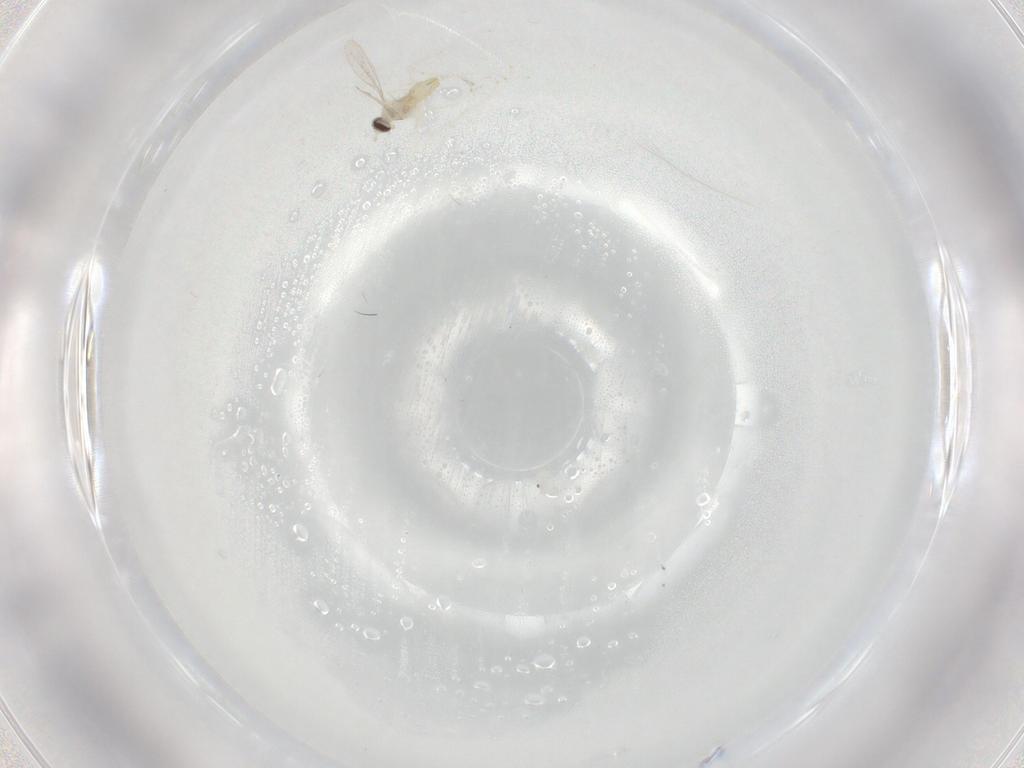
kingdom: Animalia
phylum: Arthropoda
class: Insecta
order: Diptera
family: Cecidomyiidae
